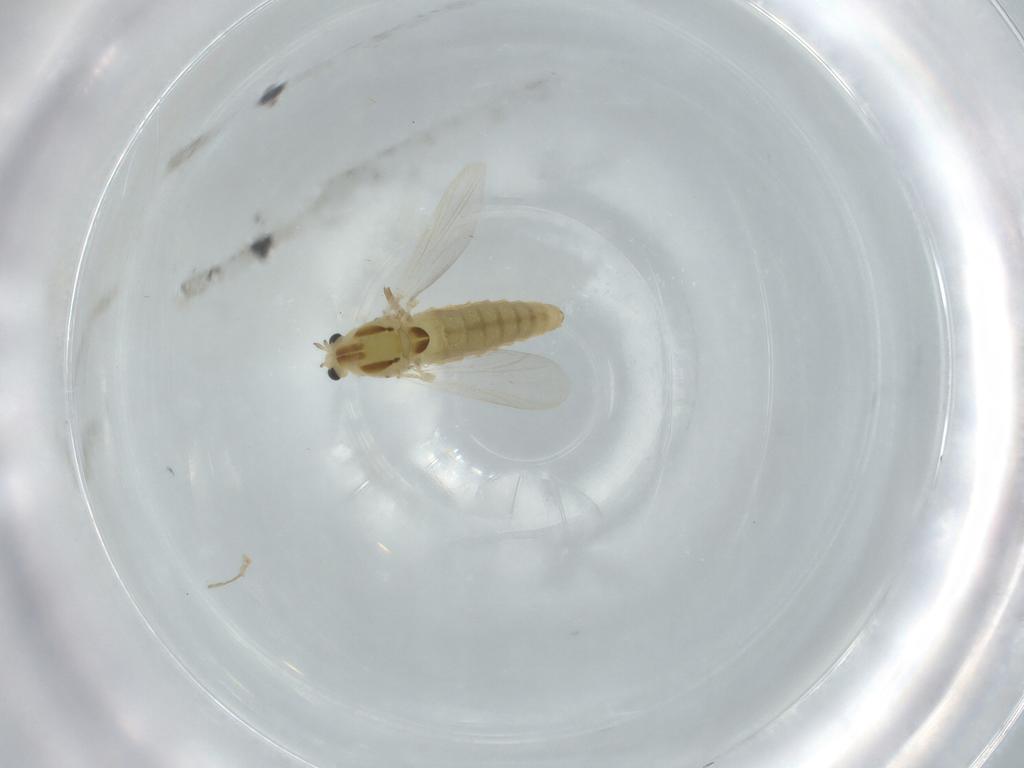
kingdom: Animalia
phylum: Arthropoda
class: Insecta
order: Diptera
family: Chironomidae
